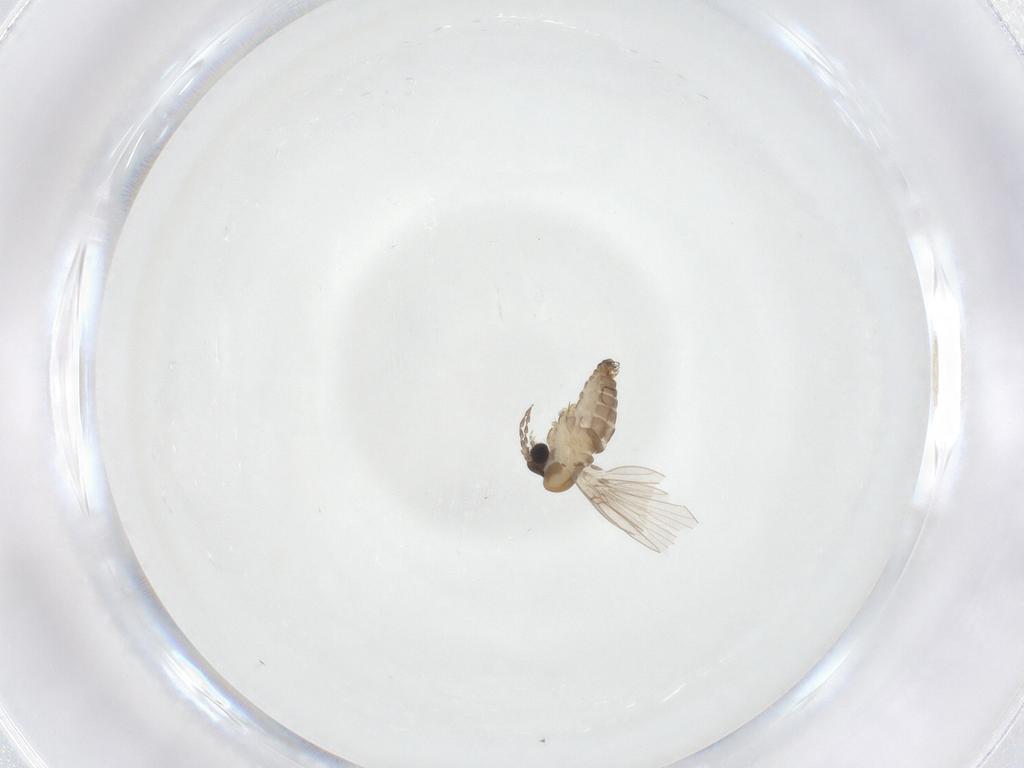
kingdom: Animalia
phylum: Arthropoda
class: Insecta
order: Diptera
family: Psychodidae
